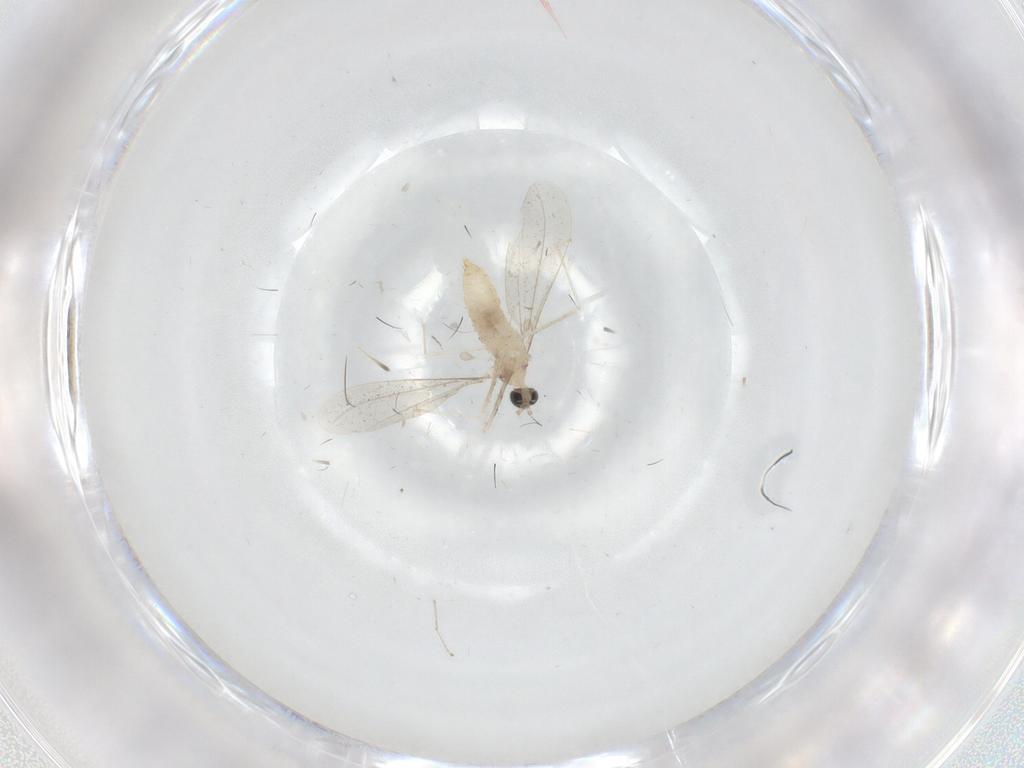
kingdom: Animalia
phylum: Arthropoda
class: Insecta
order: Diptera
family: Cecidomyiidae
